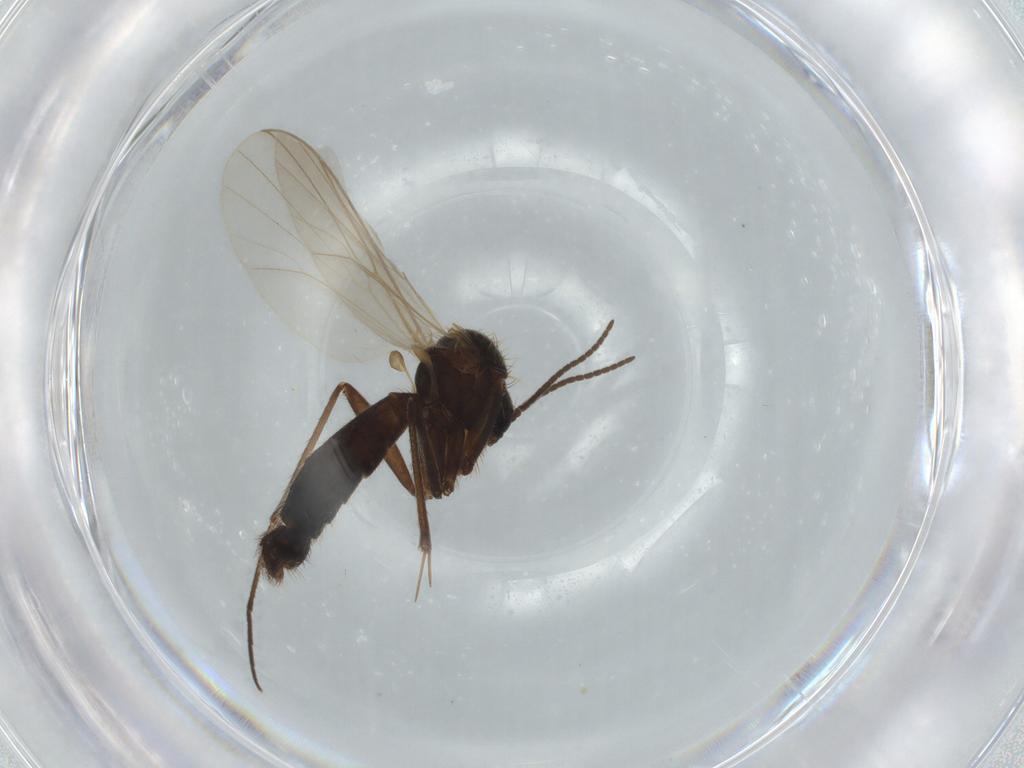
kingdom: Animalia
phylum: Arthropoda
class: Insecta
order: Diptera
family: Mycetophilidae
